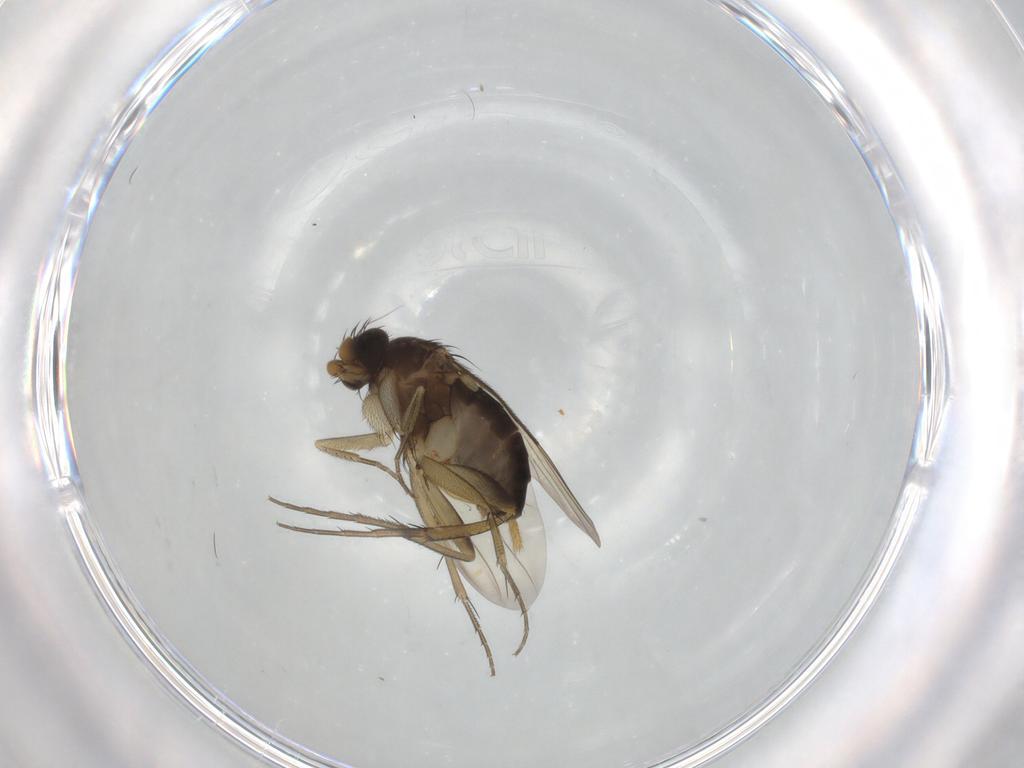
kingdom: Animalia
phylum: Arthropoda
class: Insecta
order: Diptera
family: Phoridae
